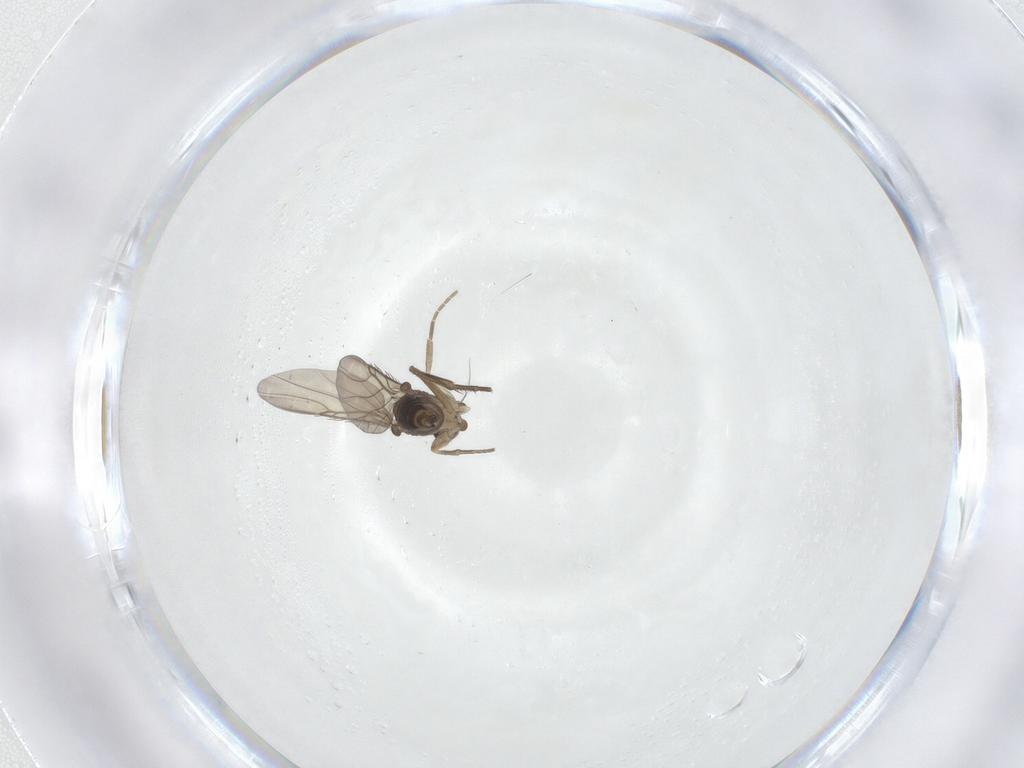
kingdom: Animalia
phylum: Arthropoda
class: Insecta
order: Diptera
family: Phoridae
